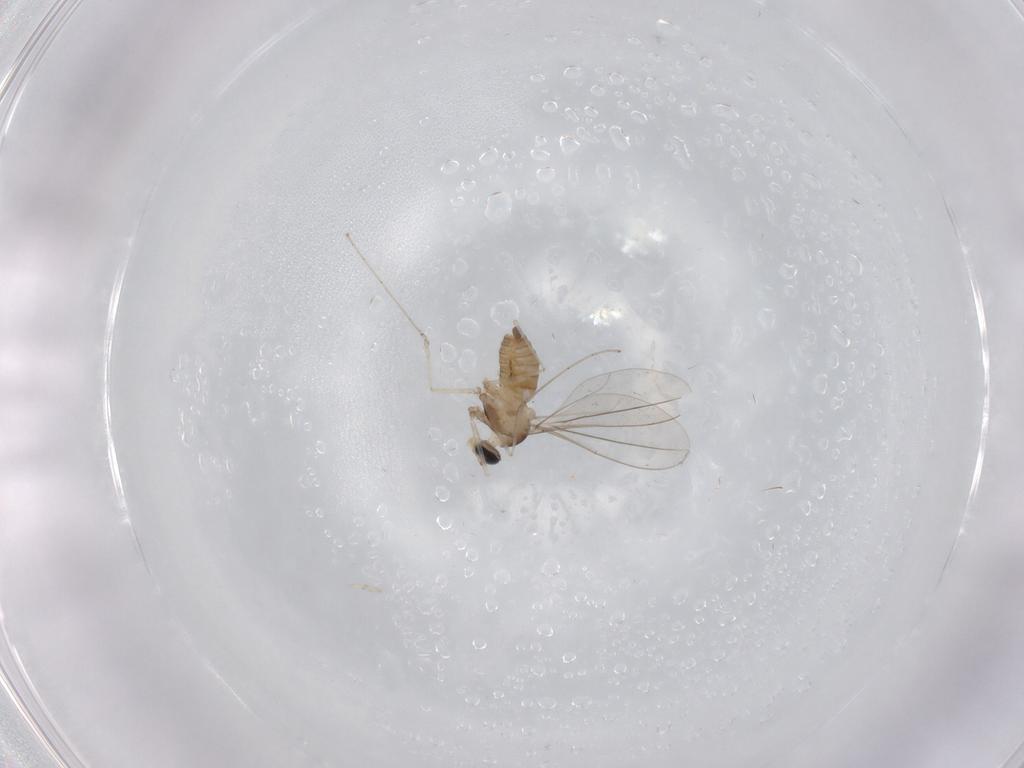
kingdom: Animalia
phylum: Arthropoda
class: Insecta
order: Diptera
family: Cecidomyiidae
